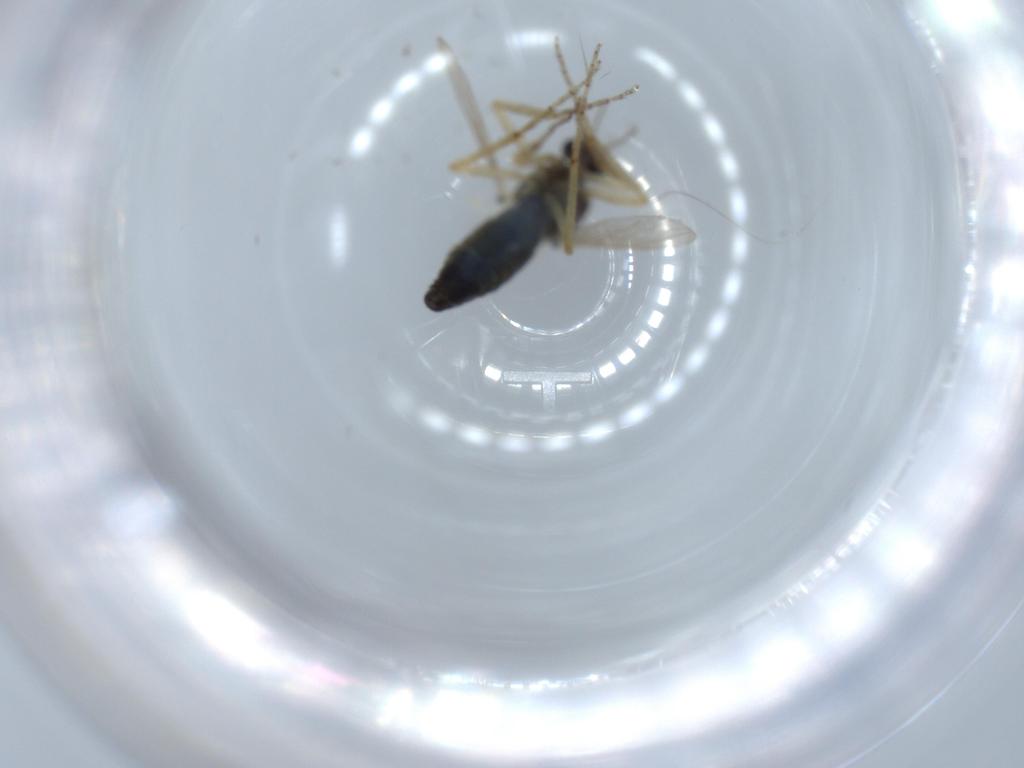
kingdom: Animalia
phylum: Arthropoda
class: Insecta
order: Diptera
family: Ceratopogonidae
